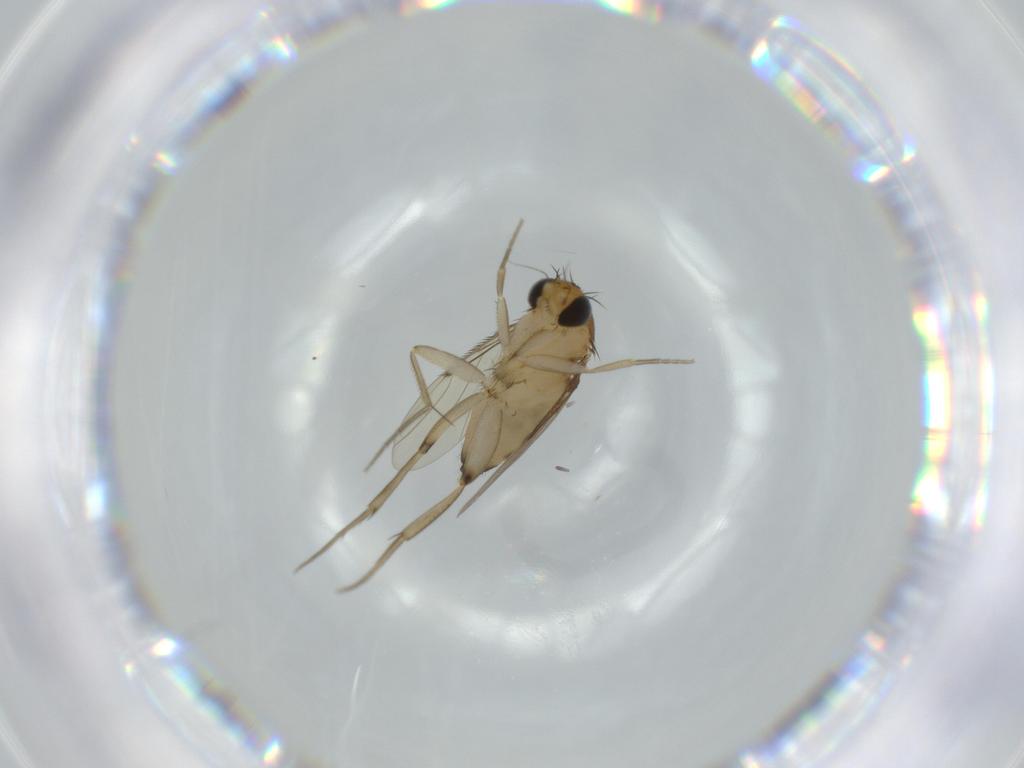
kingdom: Animalia
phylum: Arthropoda
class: Insecta
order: Diptera
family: Phoridae
